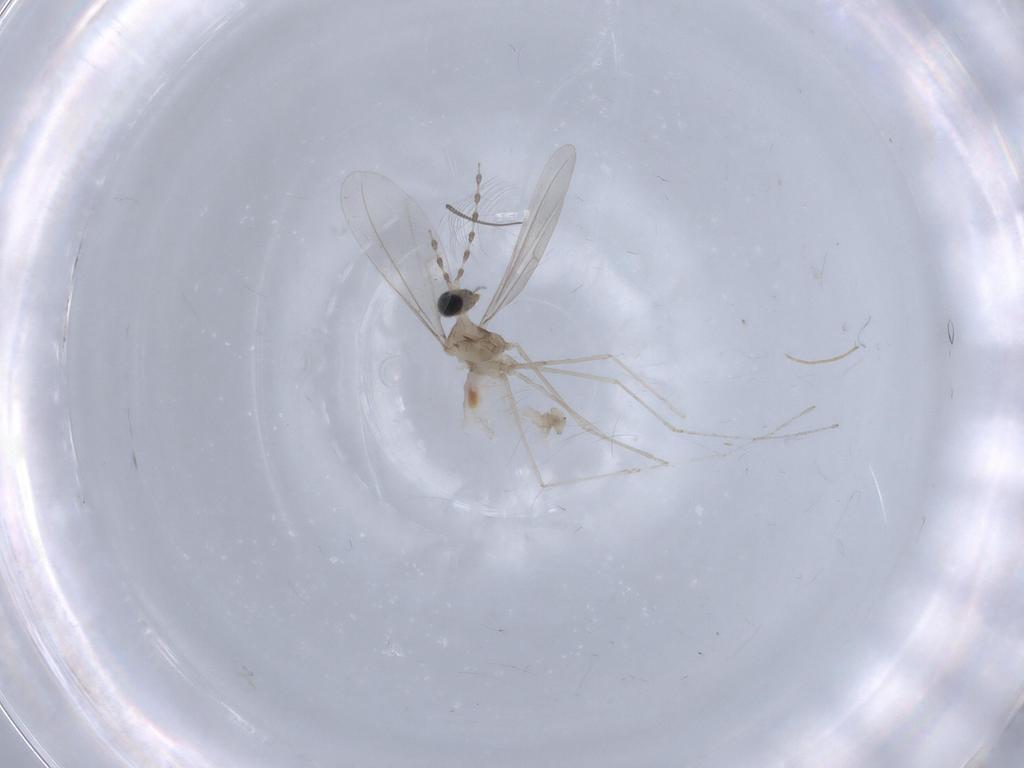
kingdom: Animalia
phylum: Arthropoda
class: Insecta
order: Diptera
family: Cecidomyiidae
